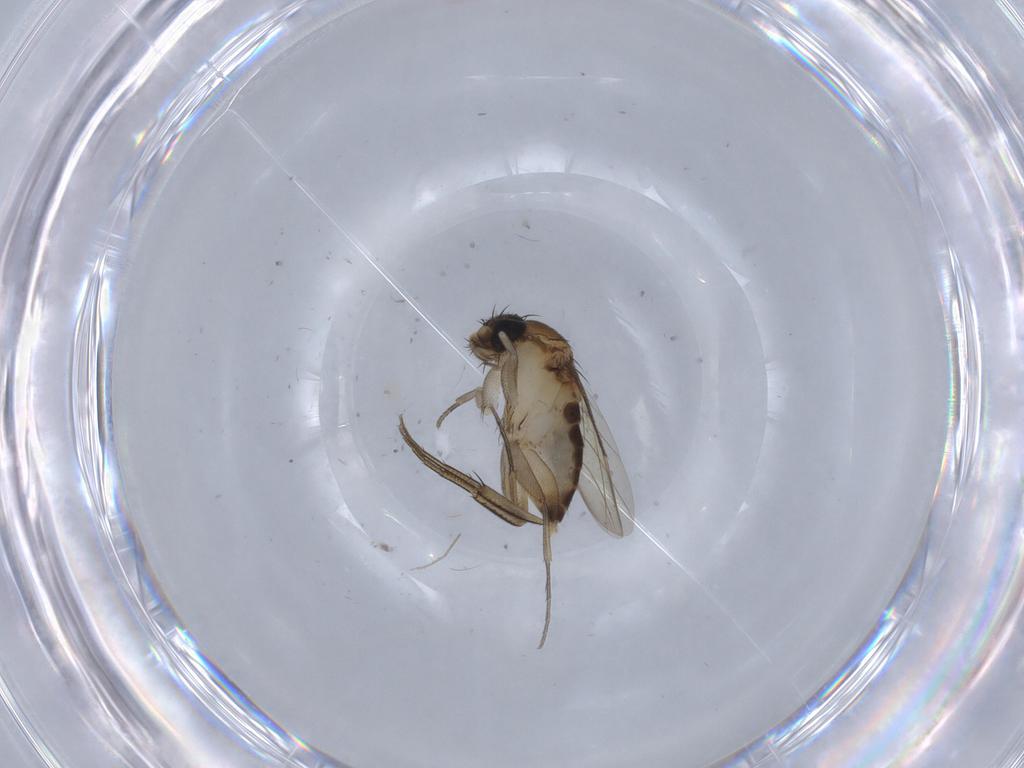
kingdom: Animalia
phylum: Arthropoda
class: Insecta
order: Diptera
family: Phoridae
